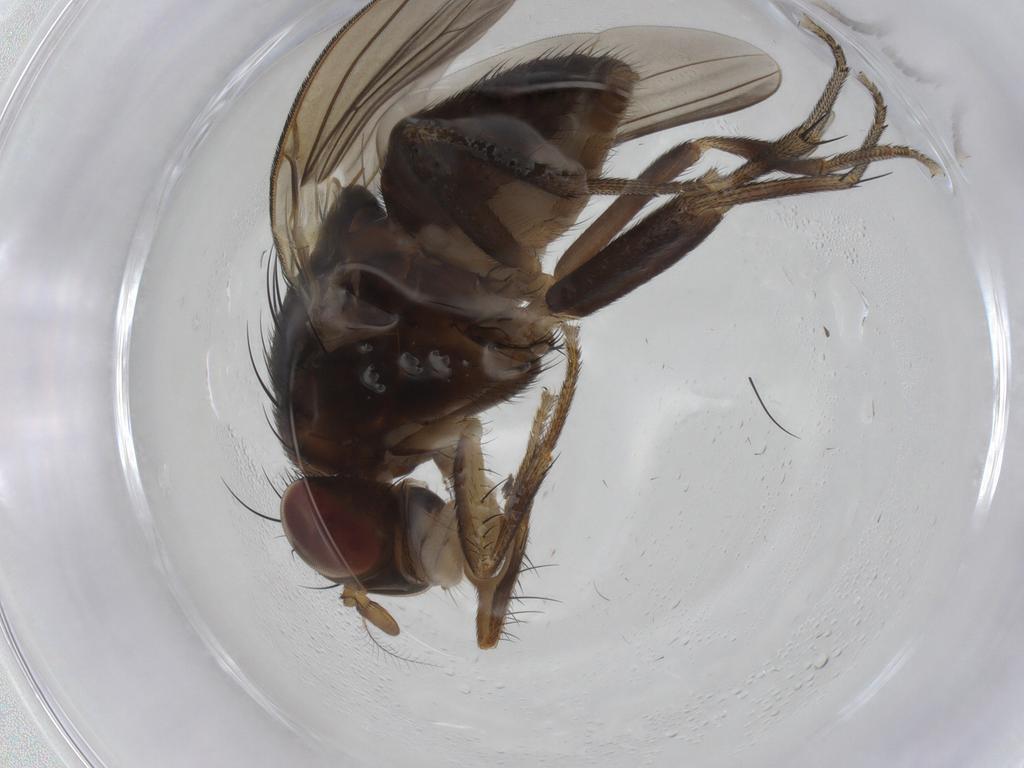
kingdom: Animalia
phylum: Arthropoda
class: Insecta
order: Diptera
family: Limoniidae
